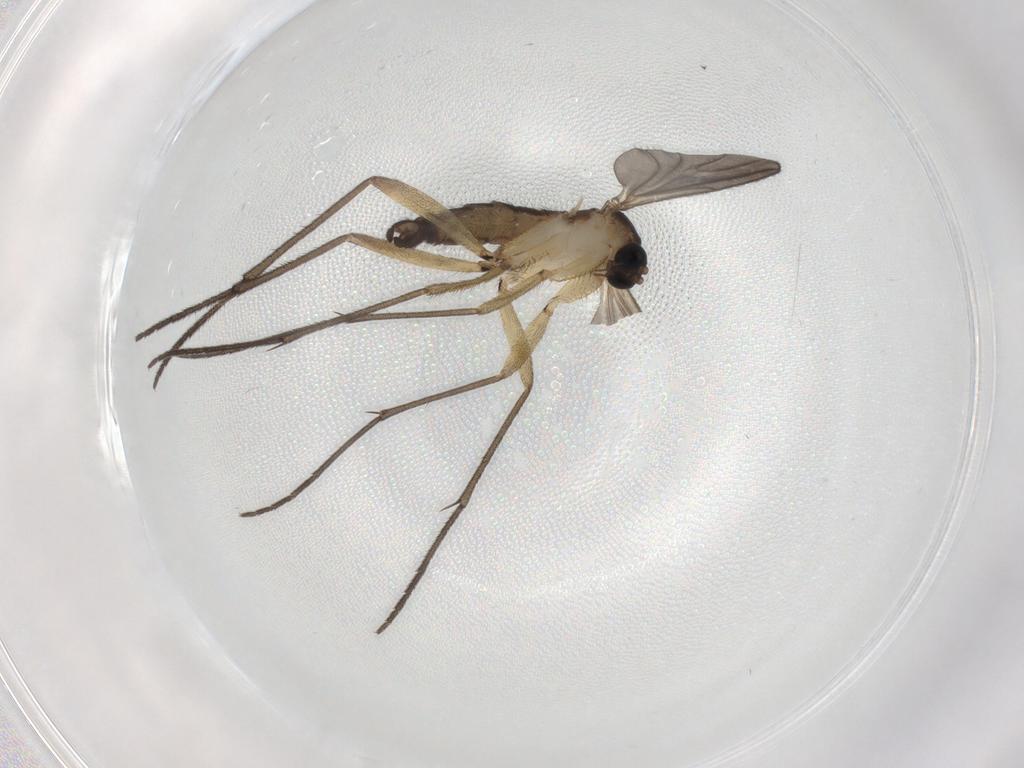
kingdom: Animalia
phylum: Arthropoda
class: Insecta
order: Diptera
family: Sciaridae
